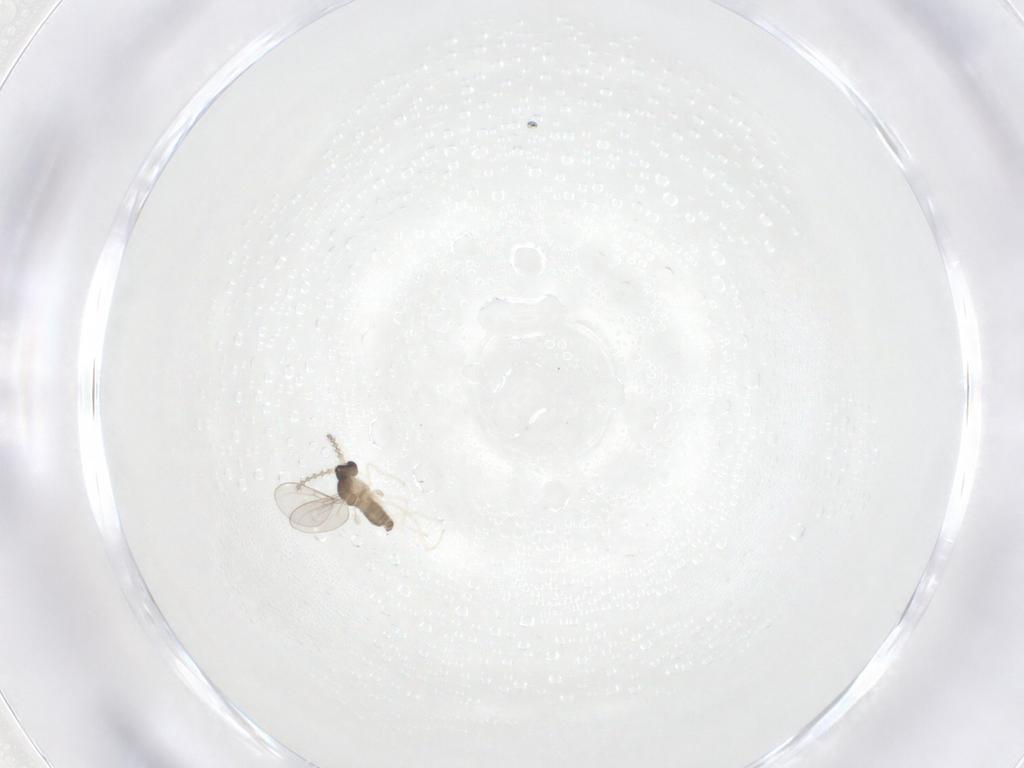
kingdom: Animalia
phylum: Arthropoda
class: Insecta
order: Diptera
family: Cecidomyiidae
